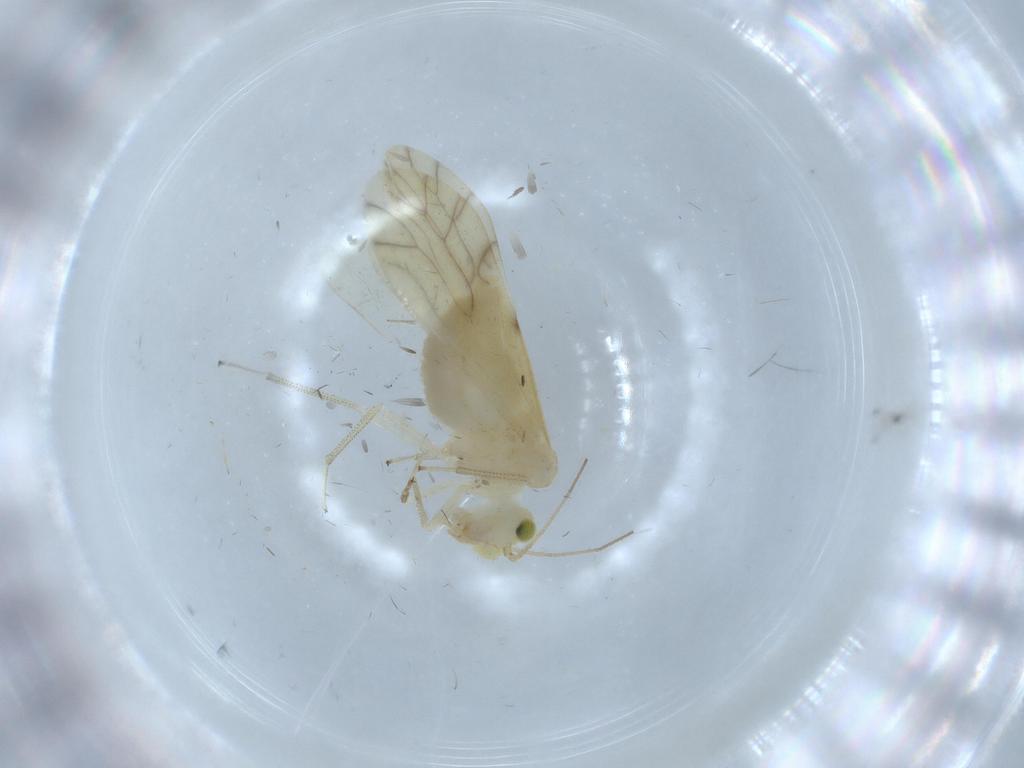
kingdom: Animalia
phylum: Arthropoda
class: Insecta
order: Psocodea
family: Caeciliusidae
